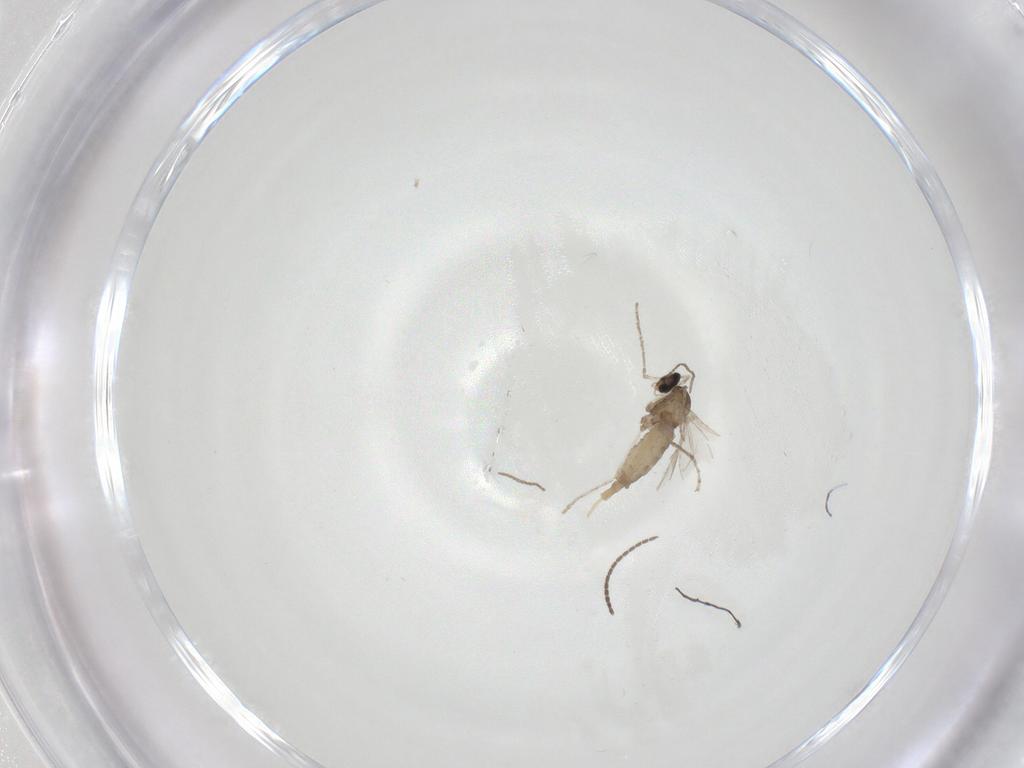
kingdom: Animalia
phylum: Arthropoda
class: Insecta
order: Diptera
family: Sciaridae
